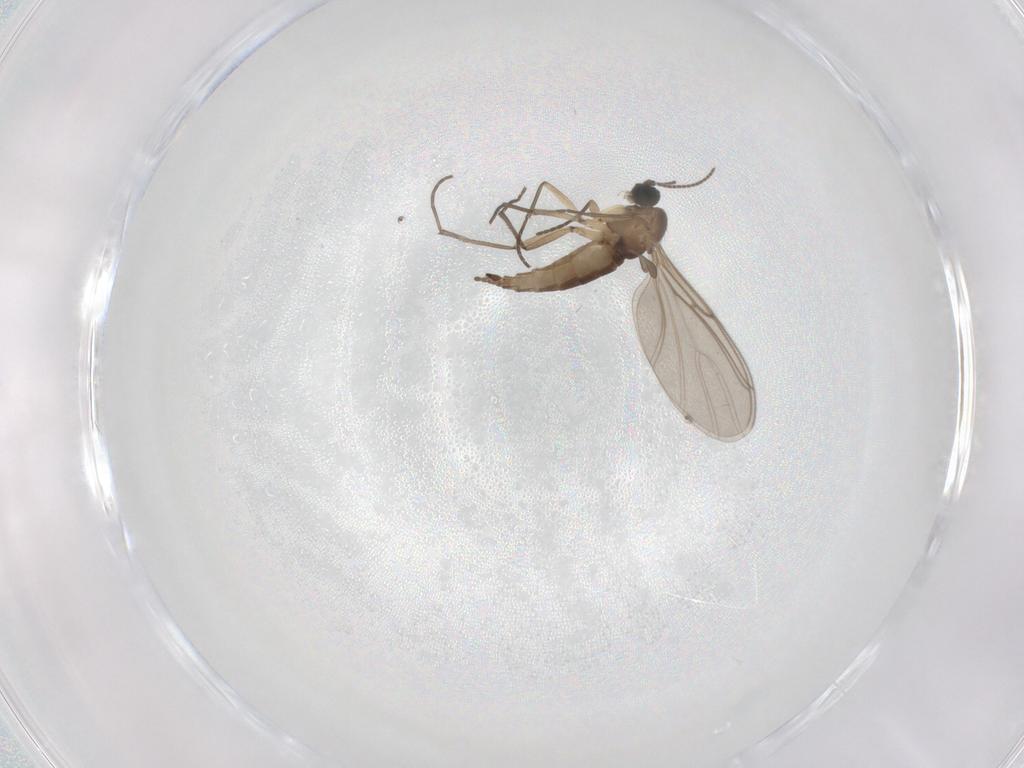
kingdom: Animalia
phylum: Arthropoda
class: Insecta
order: Diptera
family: Sciaridae
